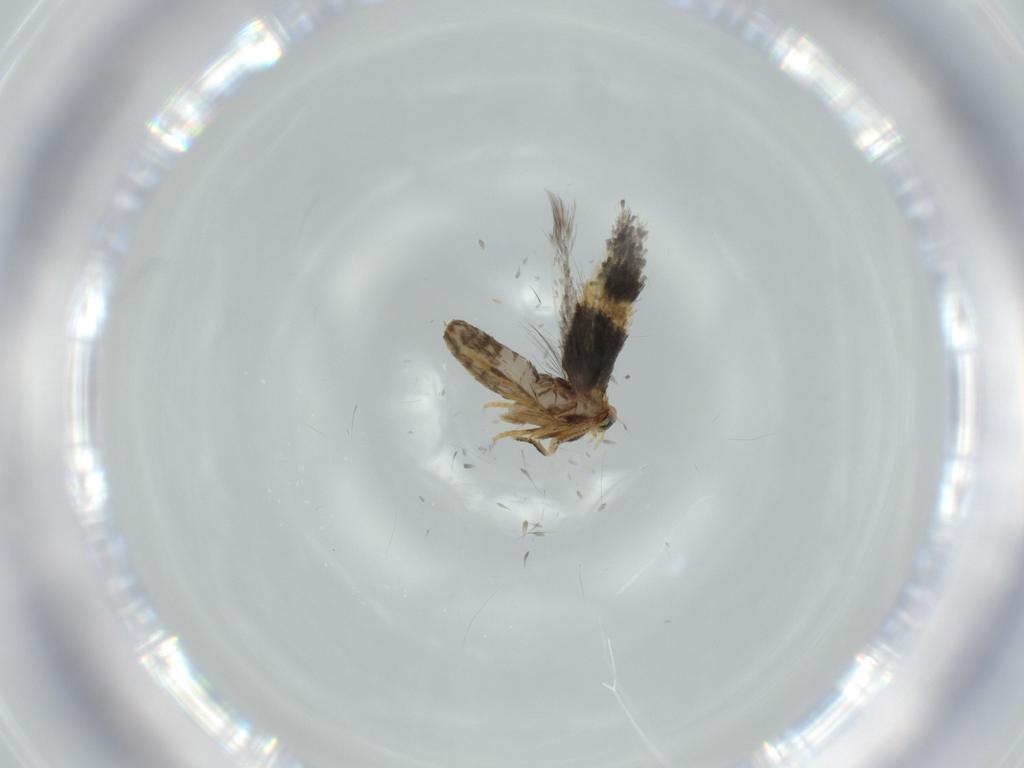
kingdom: Animalia
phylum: Arthropoda
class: Insecta
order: Lepidoptera
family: Nepticulidae
